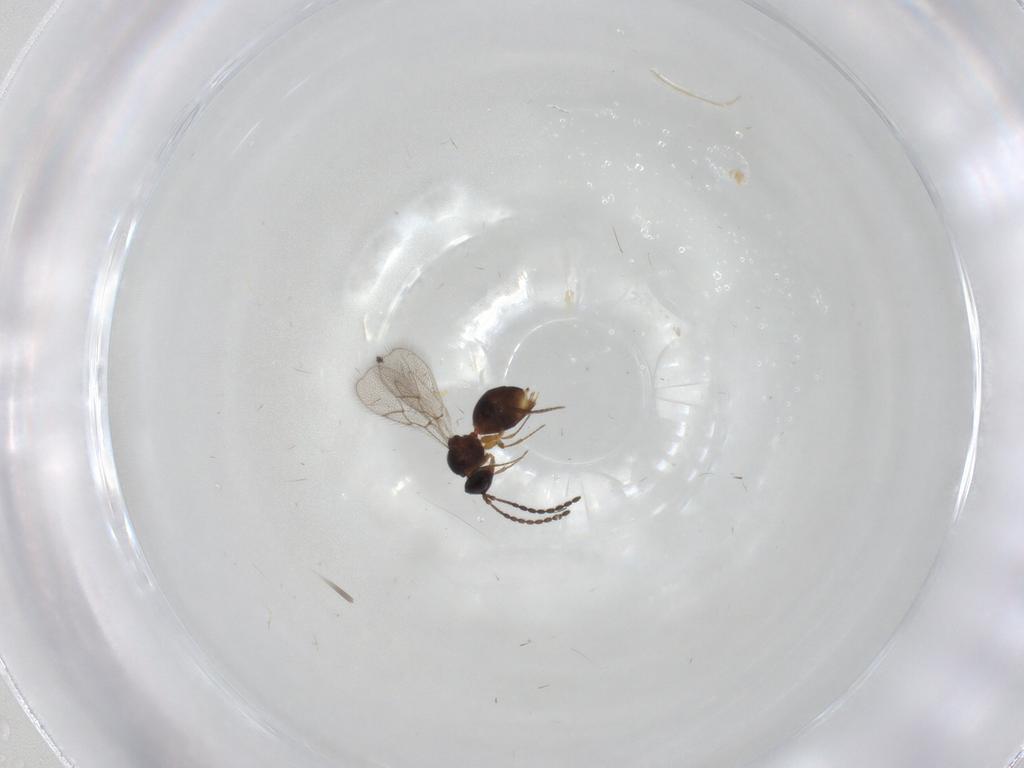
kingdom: Animalia
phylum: Arthropoda
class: Insecta
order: Hymenoptera
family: Figitidae
